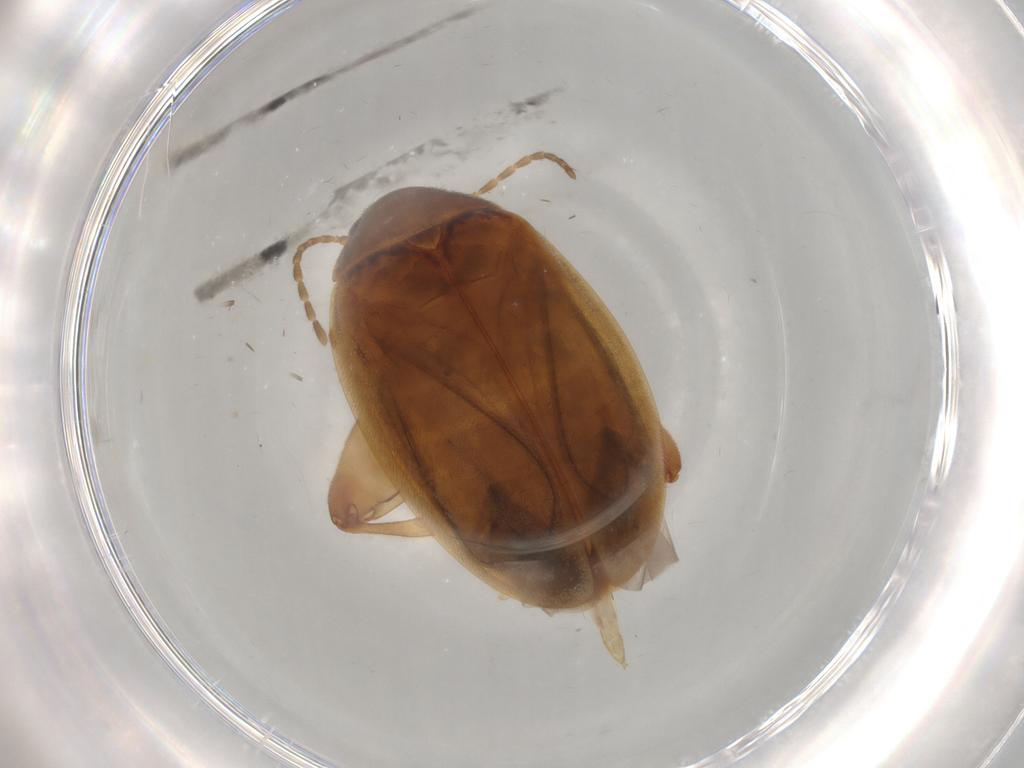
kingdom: Animalia
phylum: Arthropoda
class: Insecta
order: Coleoptera
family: Scirtidae
